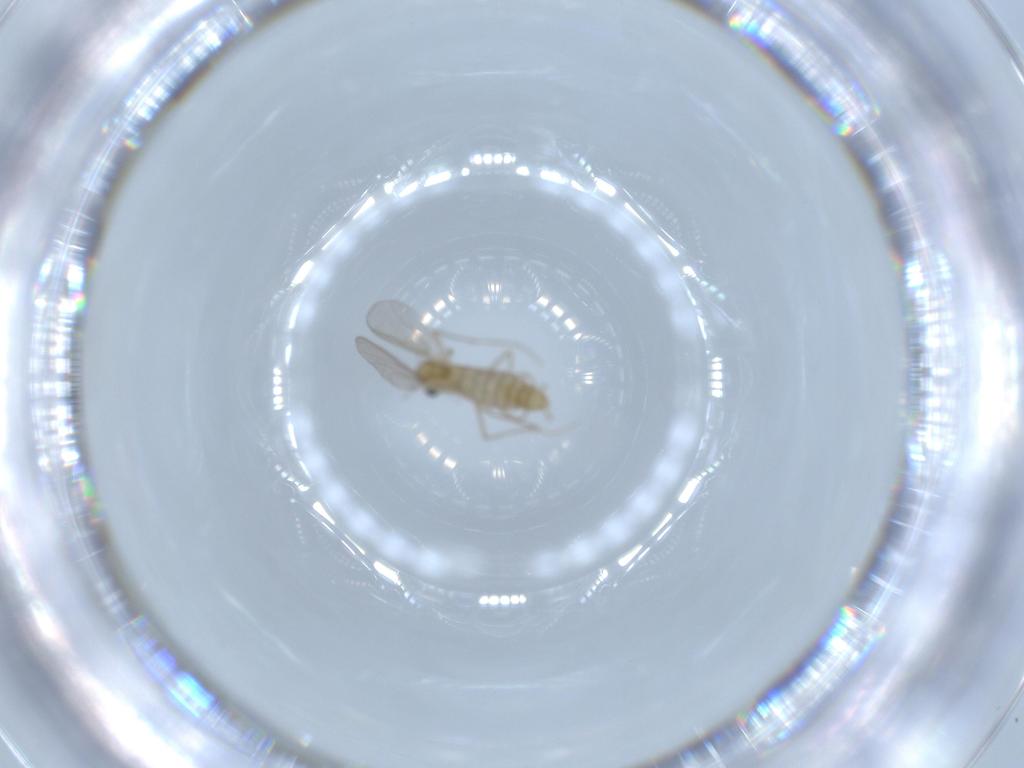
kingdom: Animalia
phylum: Arthropoda
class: Insecta
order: Diptera
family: Chironomidae
